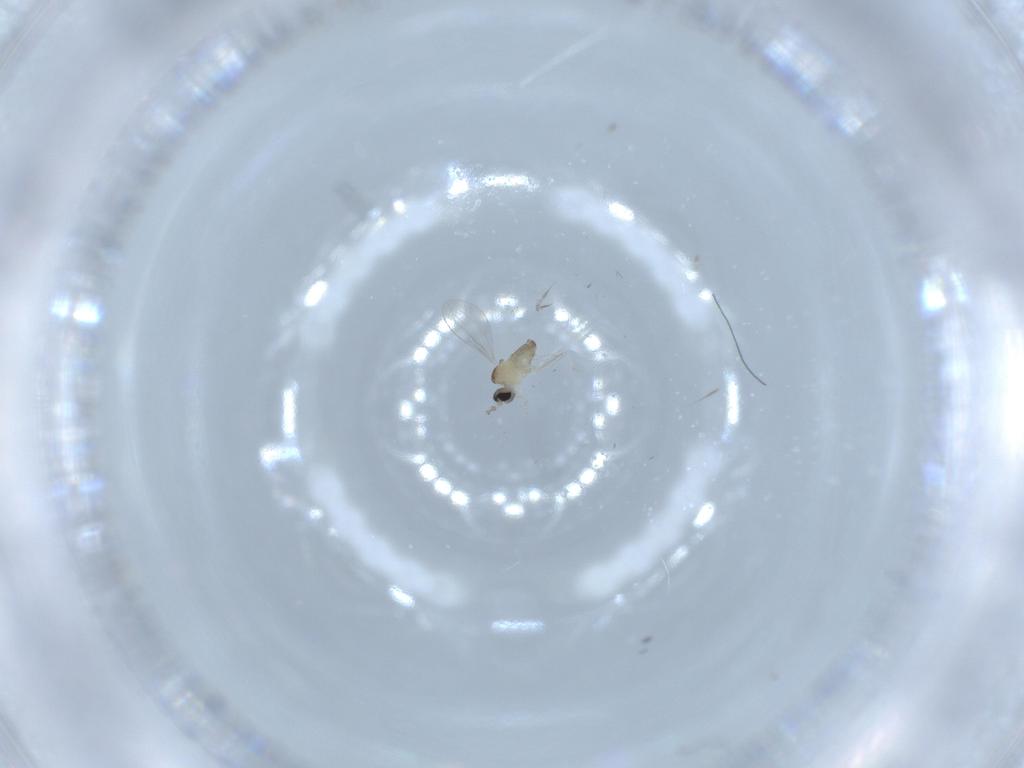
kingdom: Animalia
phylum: Arthropoda
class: Insecta
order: Diptera
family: Cecidomyiidae
